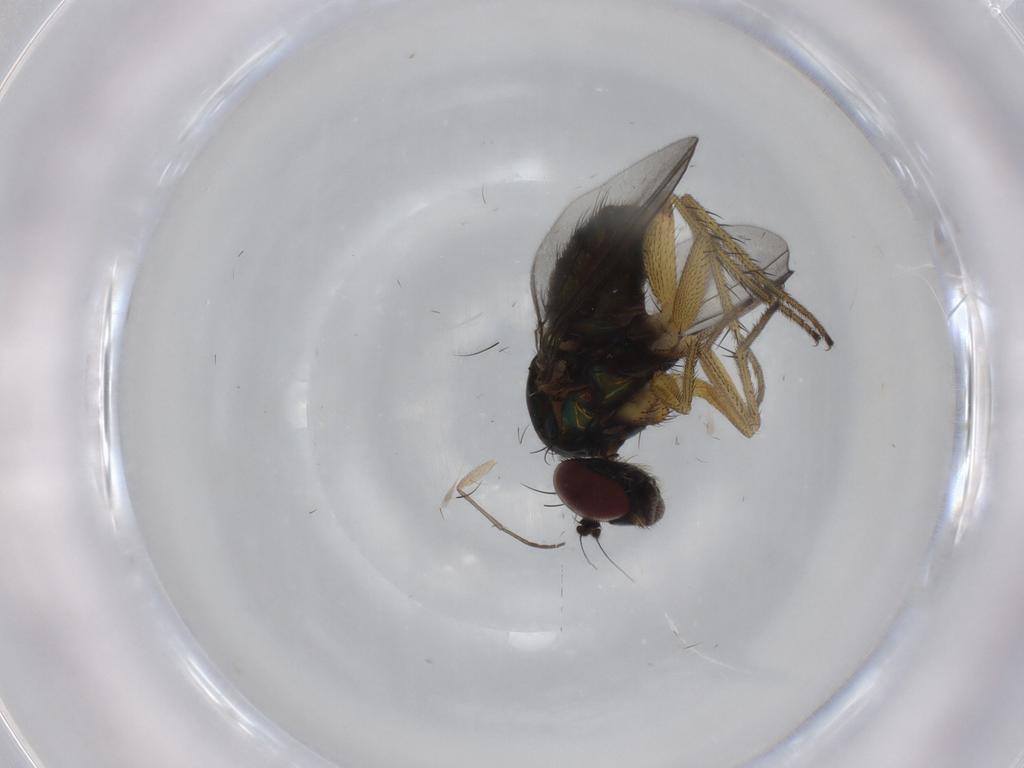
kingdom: Animalia
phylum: Arthropoda
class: Insecta
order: Diptera
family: Dolichopodidae
